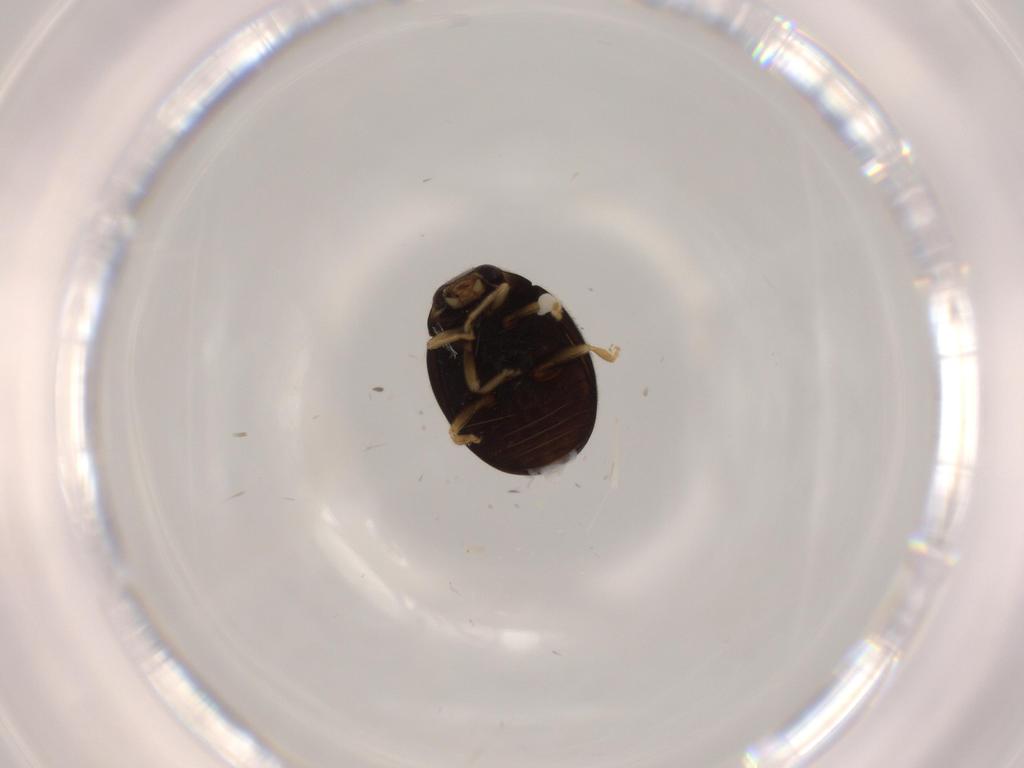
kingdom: Animalia
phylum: Arthropoda
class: Insecta
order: Coleoptera
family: Coccinellidae
